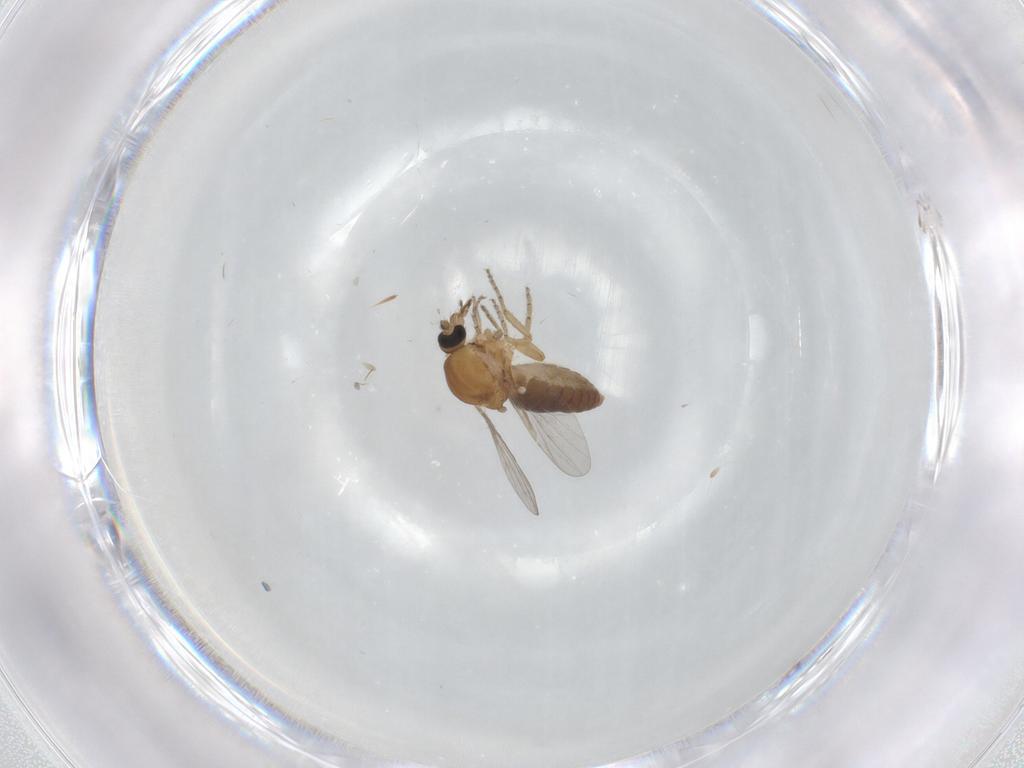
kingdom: Animalia
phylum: Arthropoda
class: Insecta
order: Diptera
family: Ceratopogonidae
